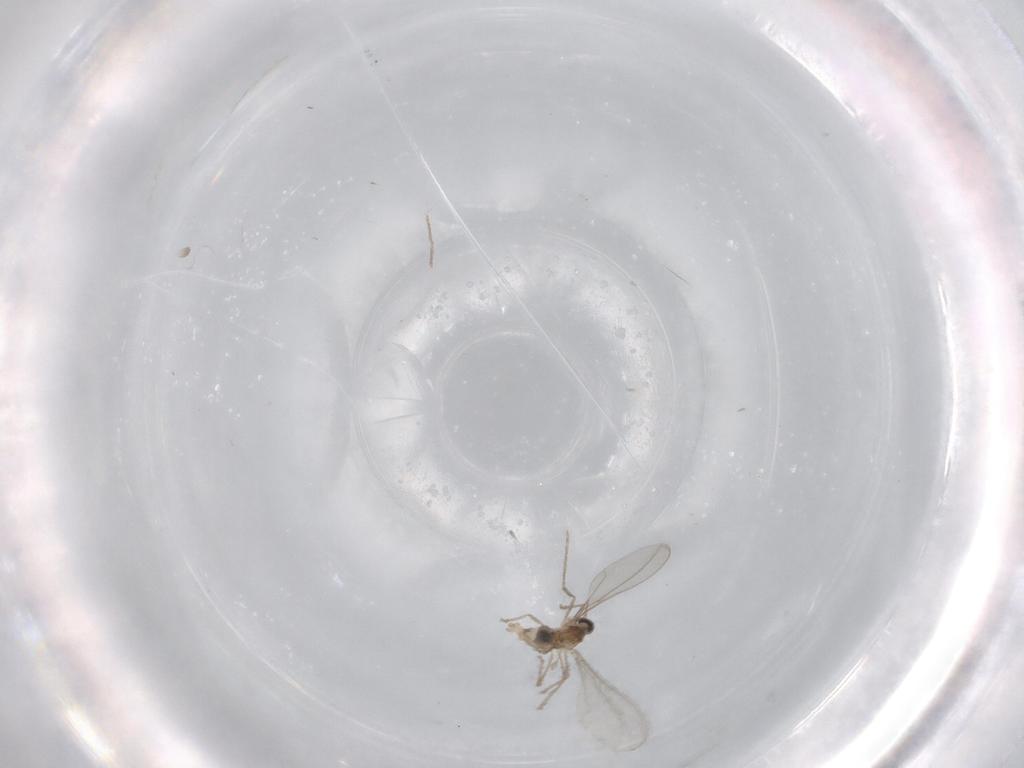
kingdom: Animalia
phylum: Arthropoda
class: Insecta
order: Diptera
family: Cecidomyiidae
